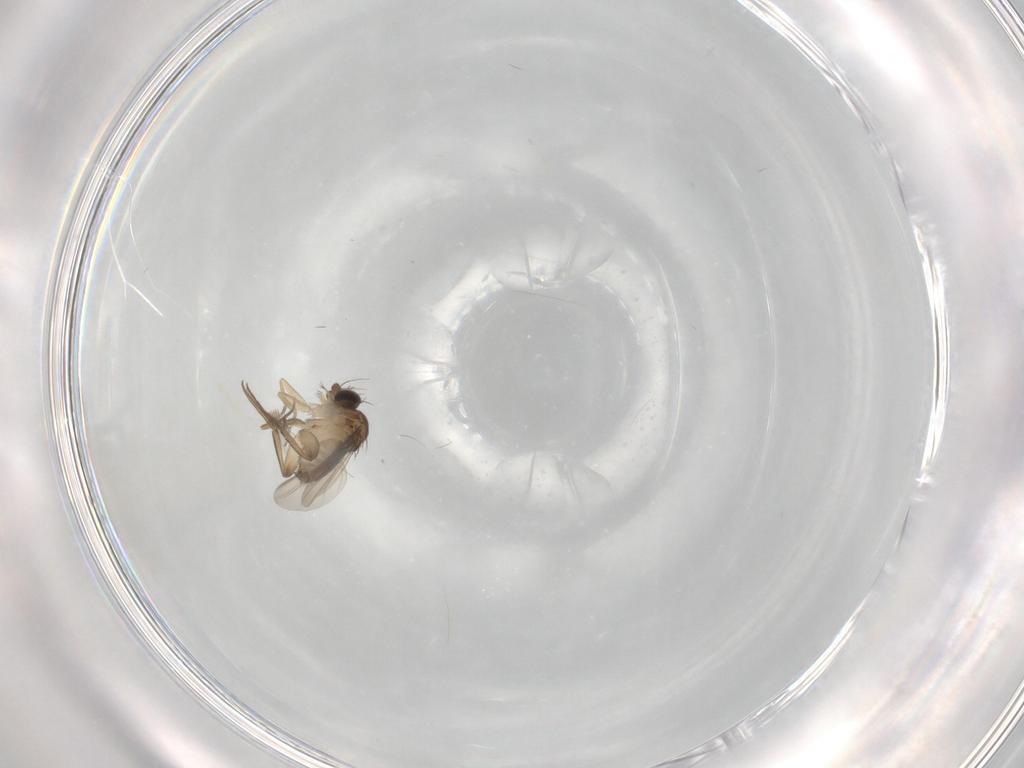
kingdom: Animalia
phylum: Arthropoda
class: Insecta
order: Diptera
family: Phoridae
